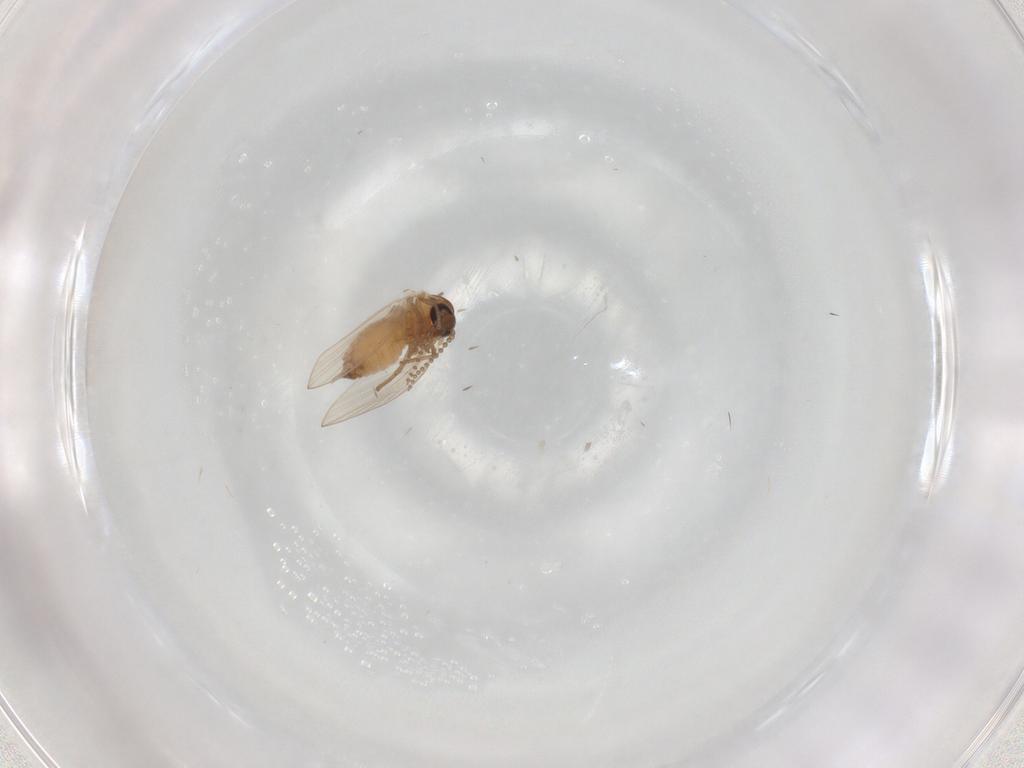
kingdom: Animalia
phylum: Arthropoda
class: Insecta
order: Diptera
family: Psychodidae
